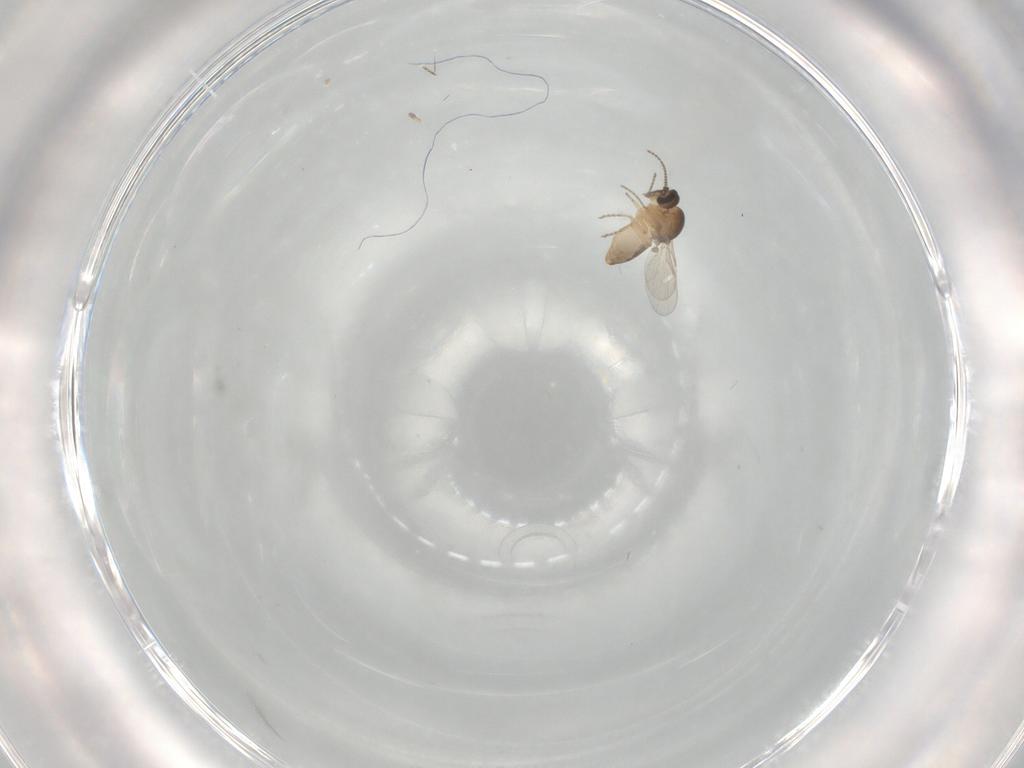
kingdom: Animalia
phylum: Arthropoda
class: Insecta
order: Diptera
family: Ceratopogonidae
